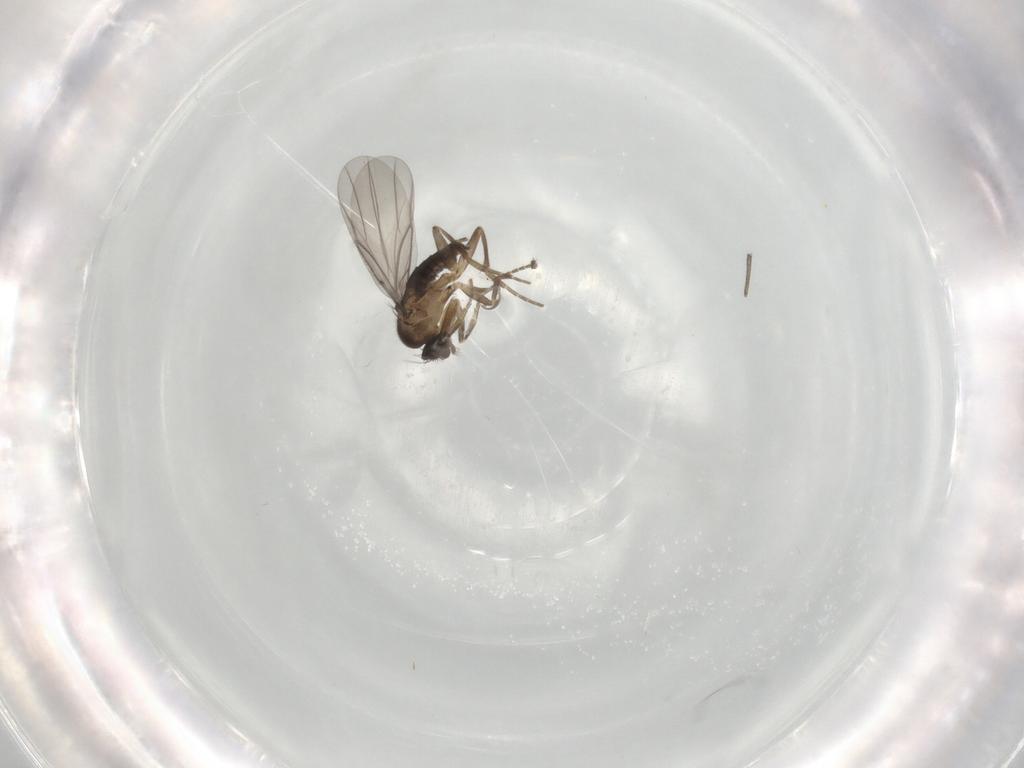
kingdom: Animalia
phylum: Arthropoda
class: Insecta
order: Diptera
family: Sciaridae
